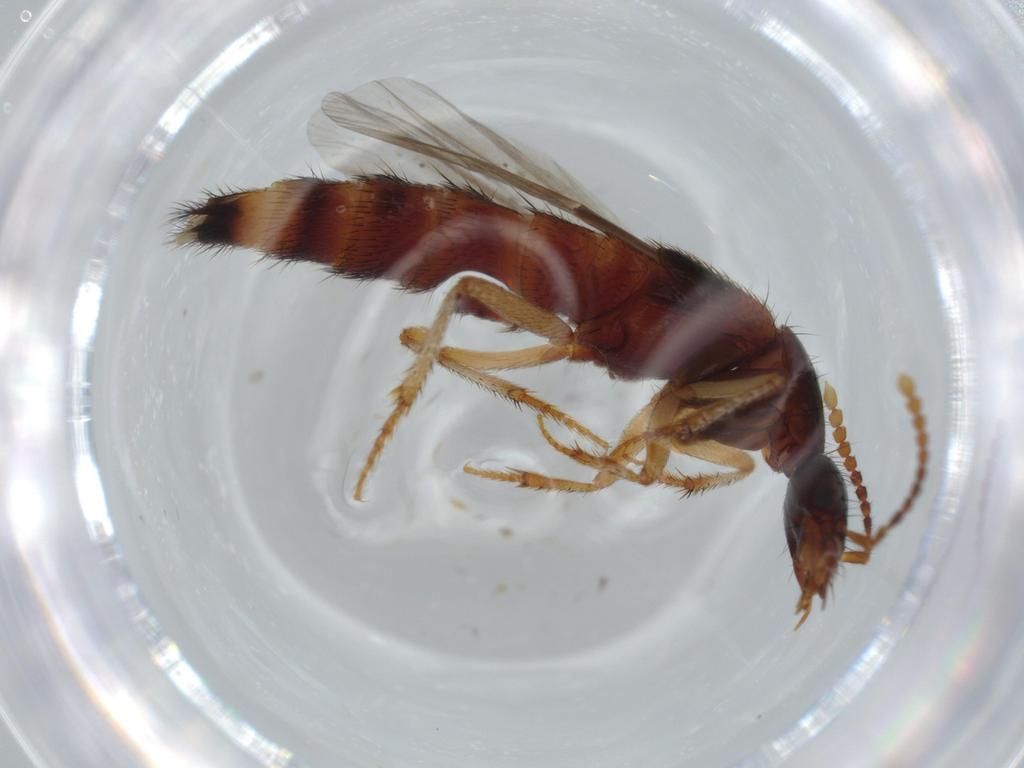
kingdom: Animalia
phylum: Arthropoda
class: Insecta
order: Coleoptera
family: Staphylinidae
